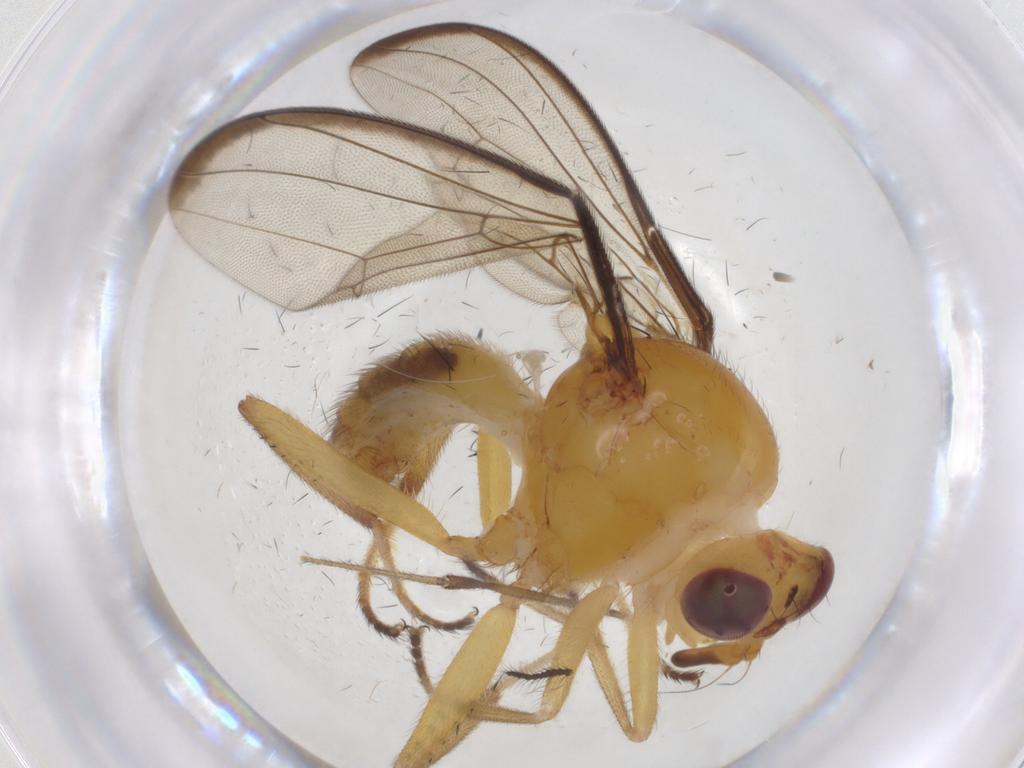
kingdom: Animalia
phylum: Arthropoda
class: Insecta
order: Diptera
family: Richardiidae
